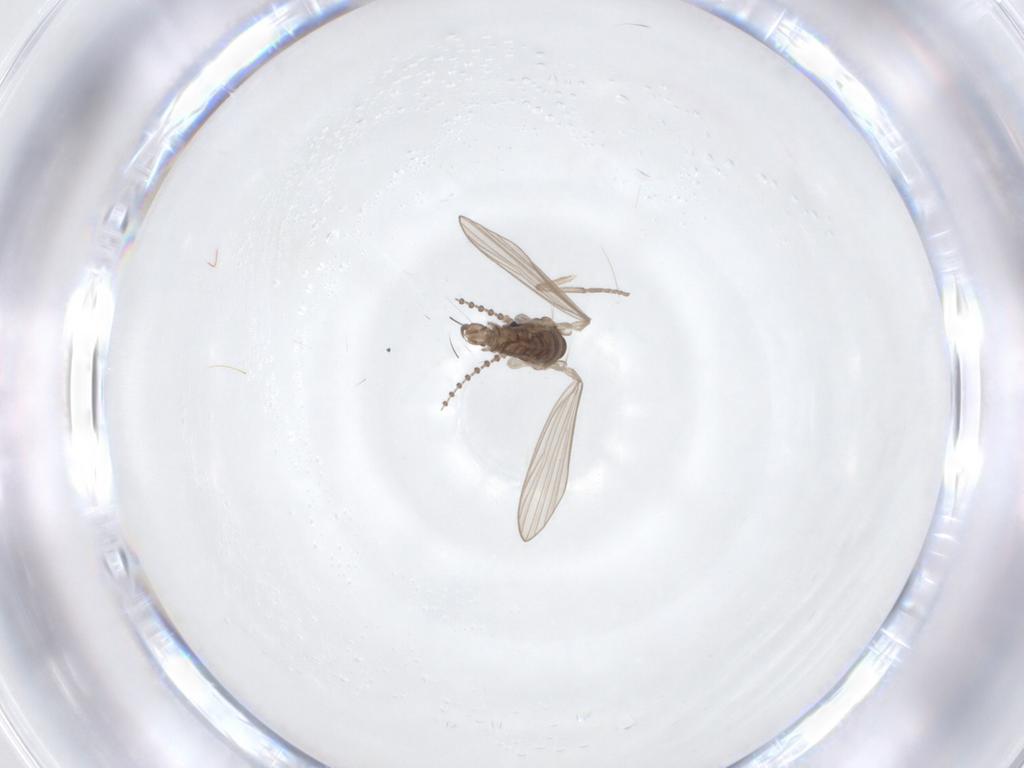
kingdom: Animalia
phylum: Arthropoda
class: Insecta
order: Diptera
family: Psychodidae
